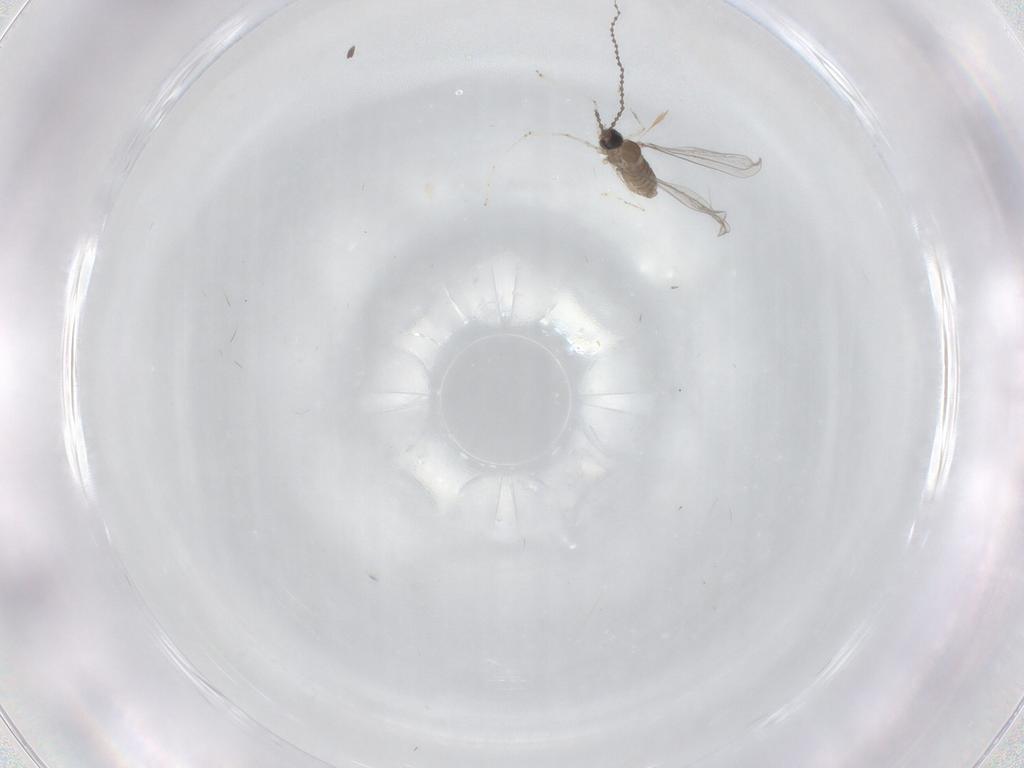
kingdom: Animalia
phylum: Arthropoda
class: Insecta
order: Diptera
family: Cecidomyiidae
